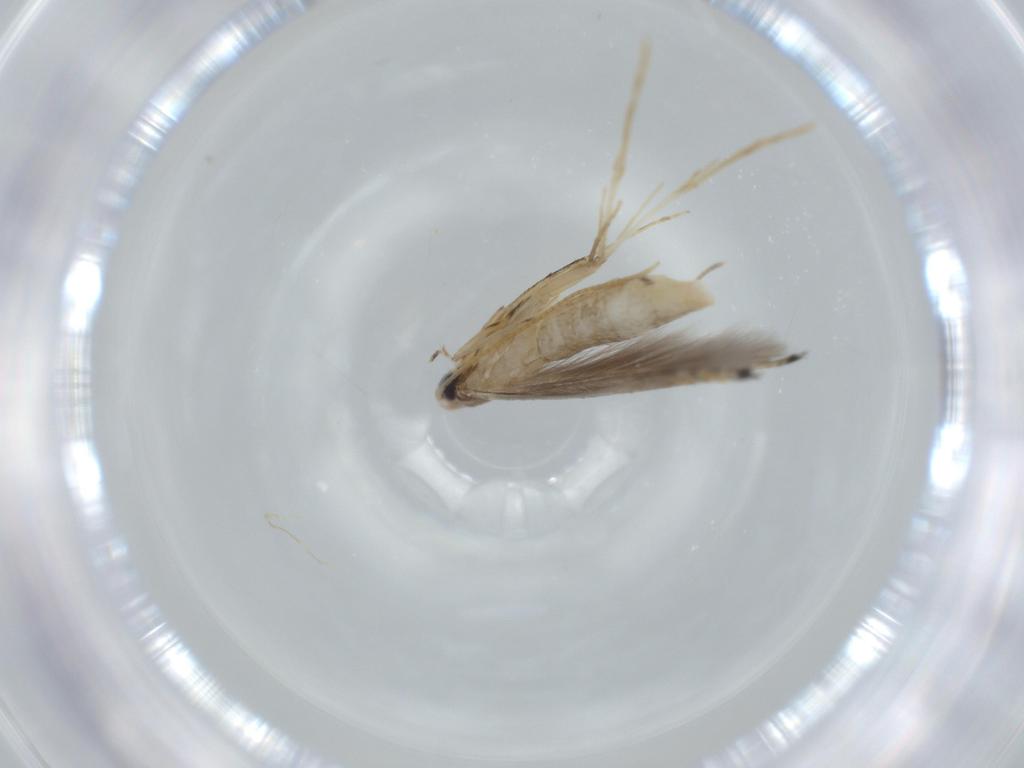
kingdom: Animalia
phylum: Arthropoda
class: Insecta
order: Lepidoptera
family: Gracillariidae
